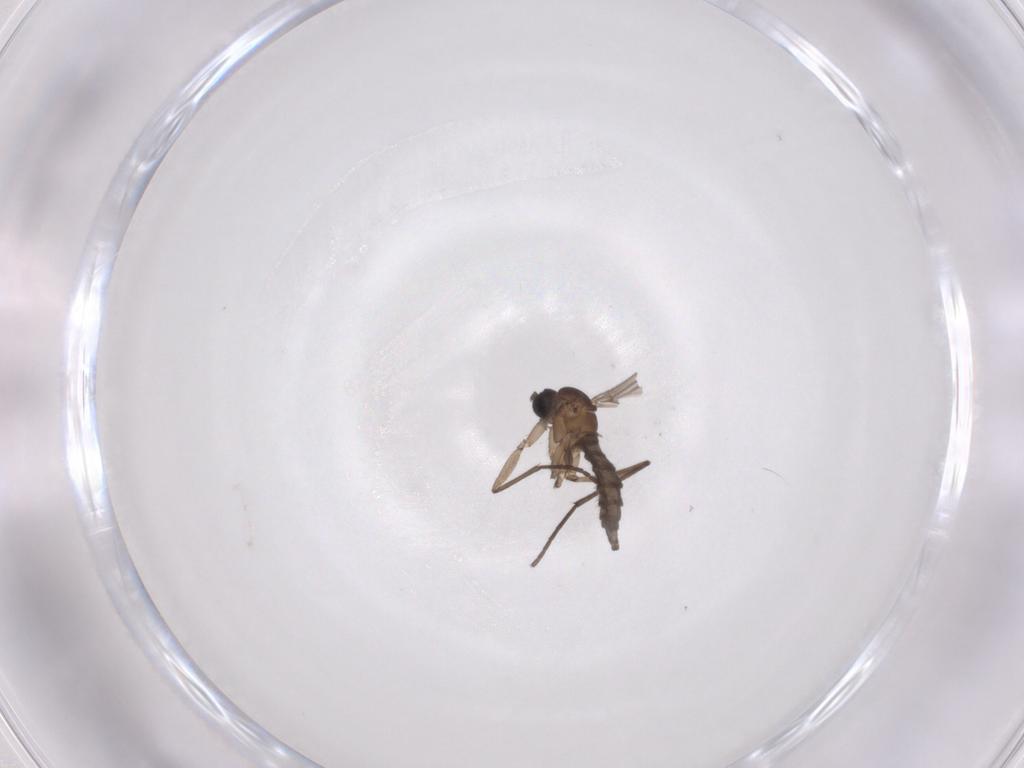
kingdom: Animalia
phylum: Arthropoda
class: Insecta
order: Diptera
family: Sciaridae
